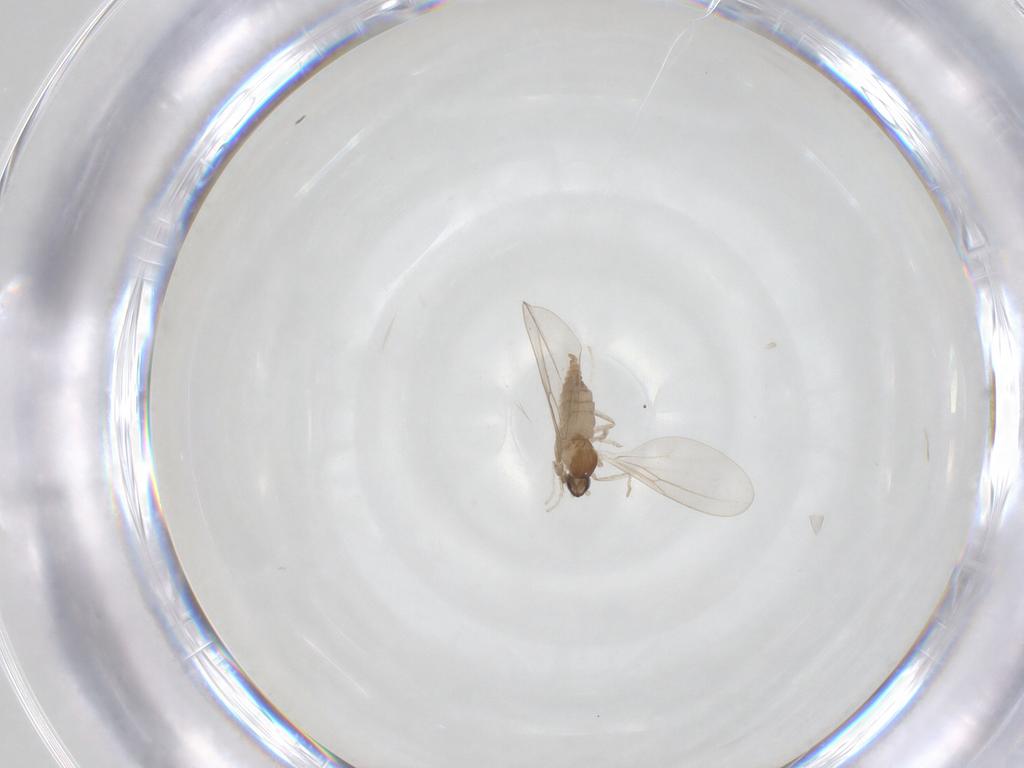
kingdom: Animalia
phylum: Arthropoda
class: Insecta
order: Diptera
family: Cecidomyiidae
